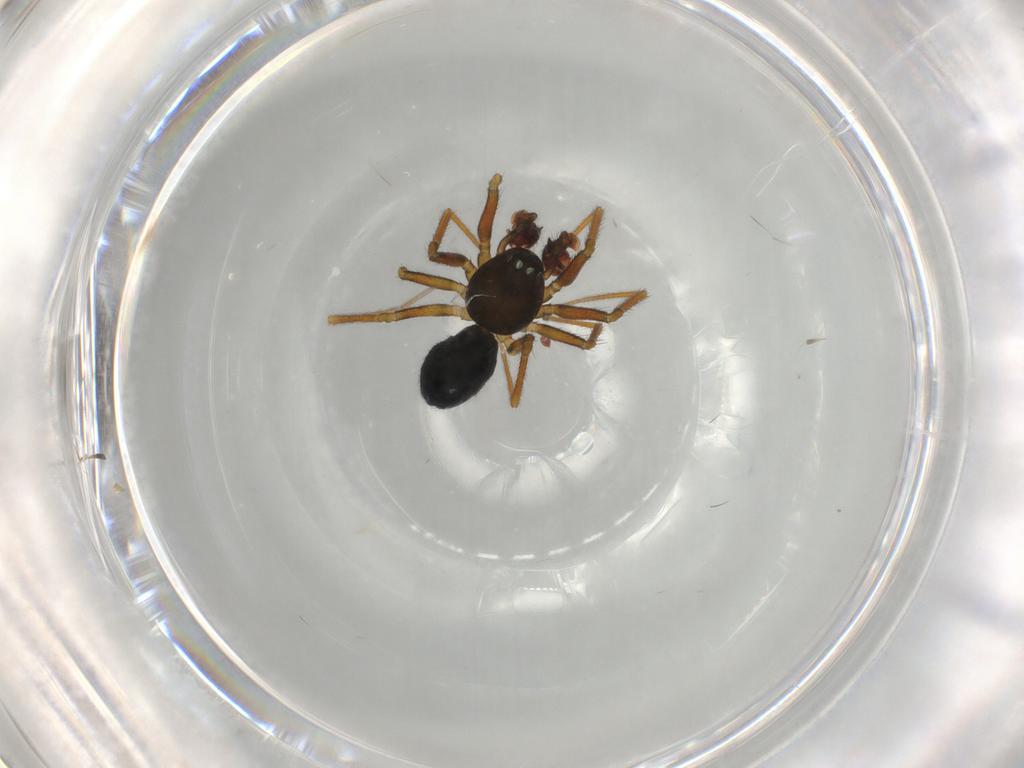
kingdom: Animalia
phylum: Arthropoda
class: Arachnida
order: Araneae
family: Linyphiidae
